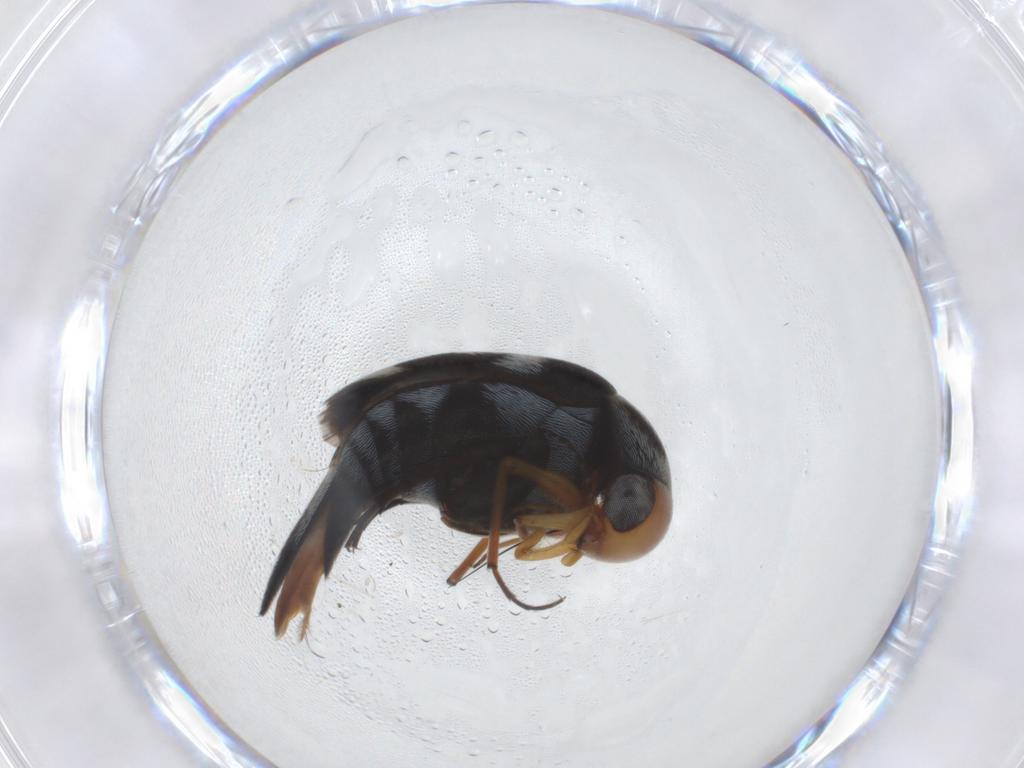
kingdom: Animalia
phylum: Arthropoda
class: Insecta
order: Coleoptera
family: Mordellidae
